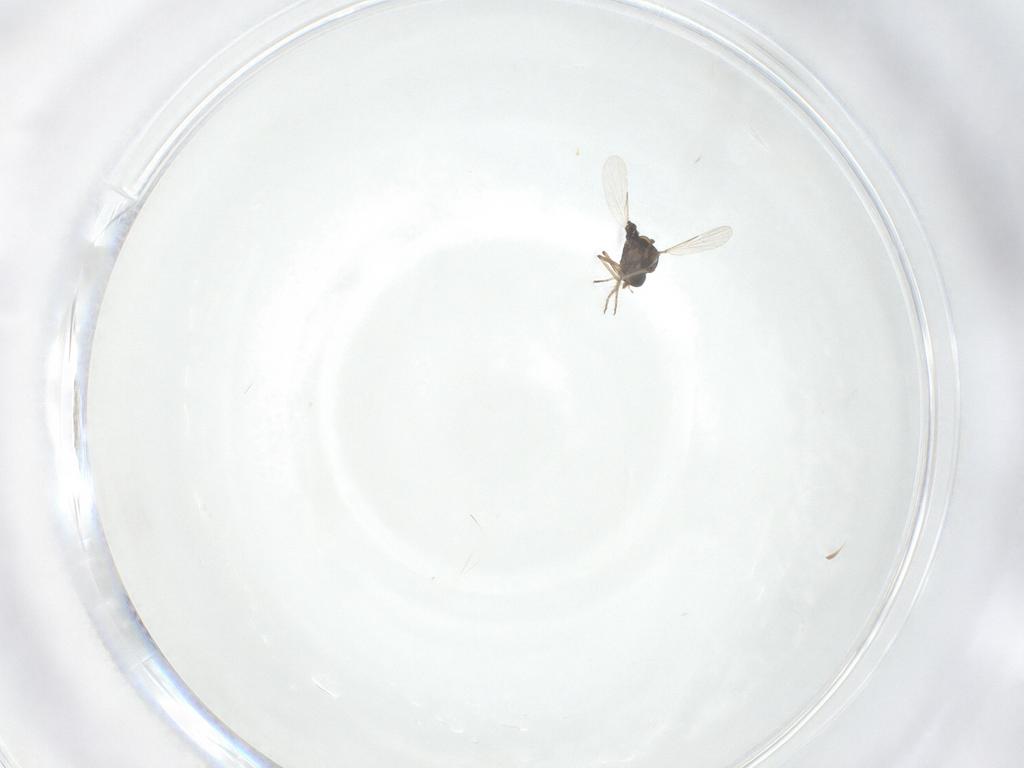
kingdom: Animalia
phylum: Arthropoda
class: Insecta
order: Diptera
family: Ceratopogonidae
